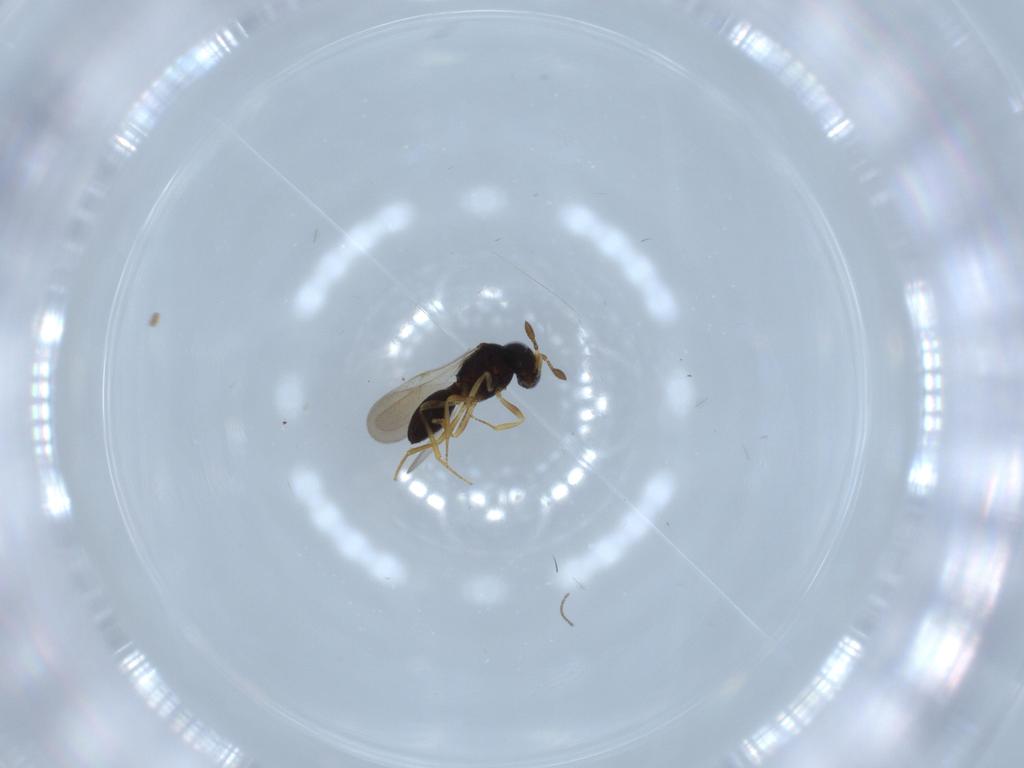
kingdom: Animalia
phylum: Arthropoda
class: Insecta
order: Hymenoptera
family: Scelionidae
